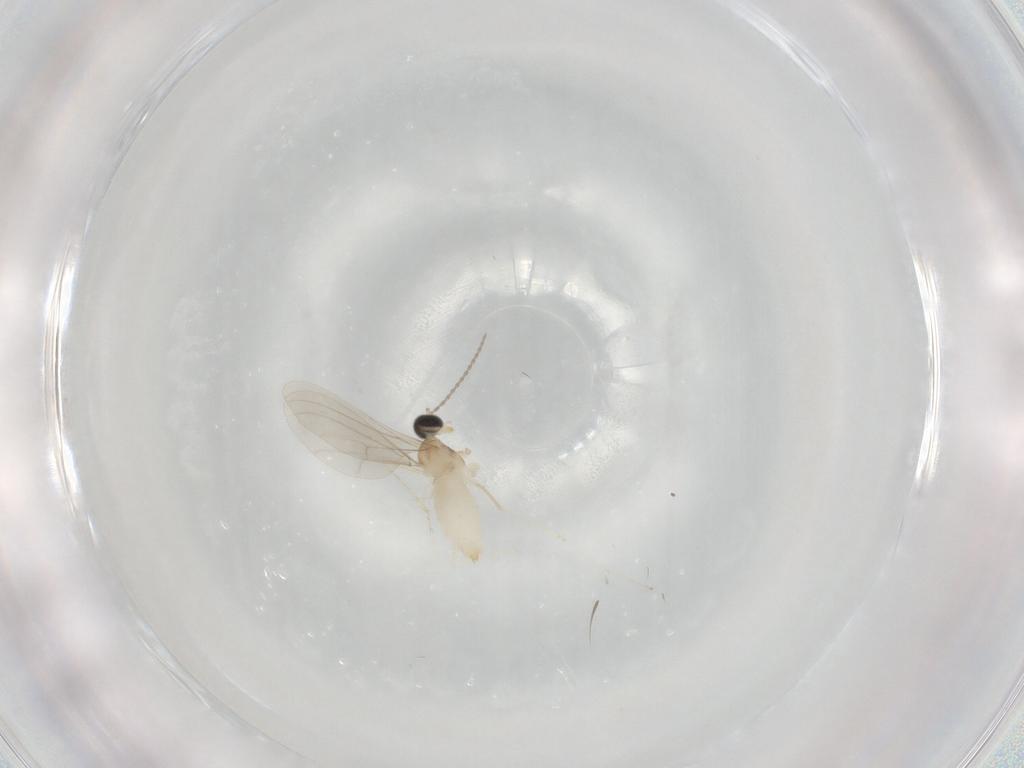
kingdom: Animalia
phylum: Arthropoda
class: Insecta
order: Diptera
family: Cecidomyiidae
